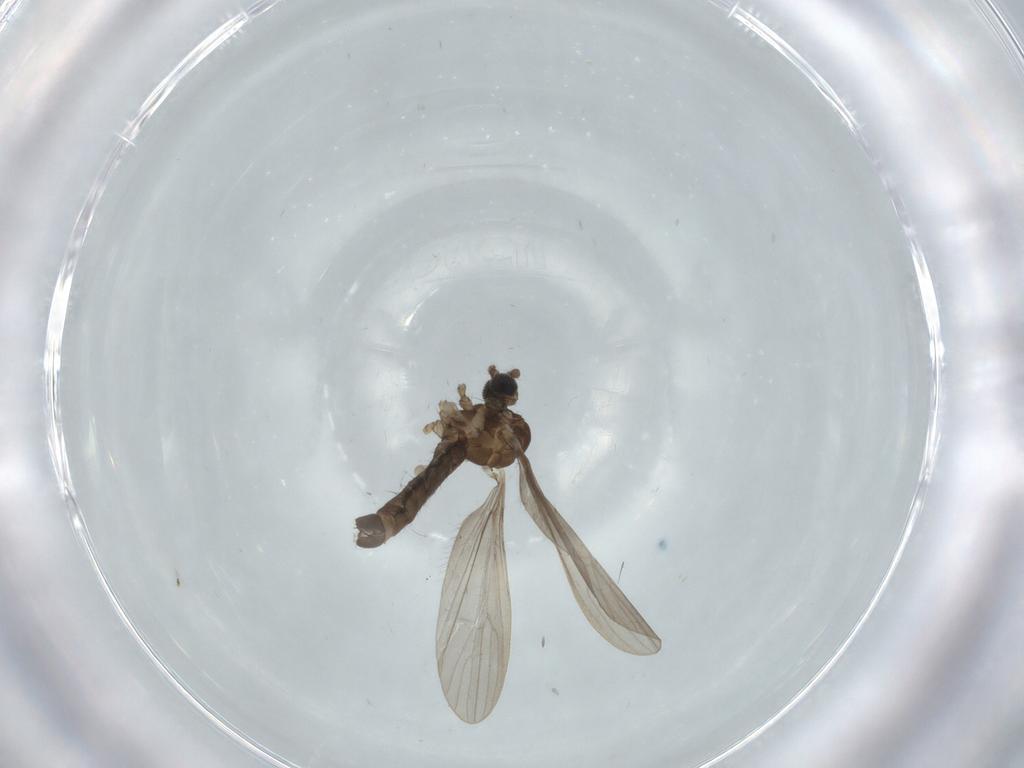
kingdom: Animalia
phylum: Arthropoda
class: Insecta
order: Diptera
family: Limoniidae
